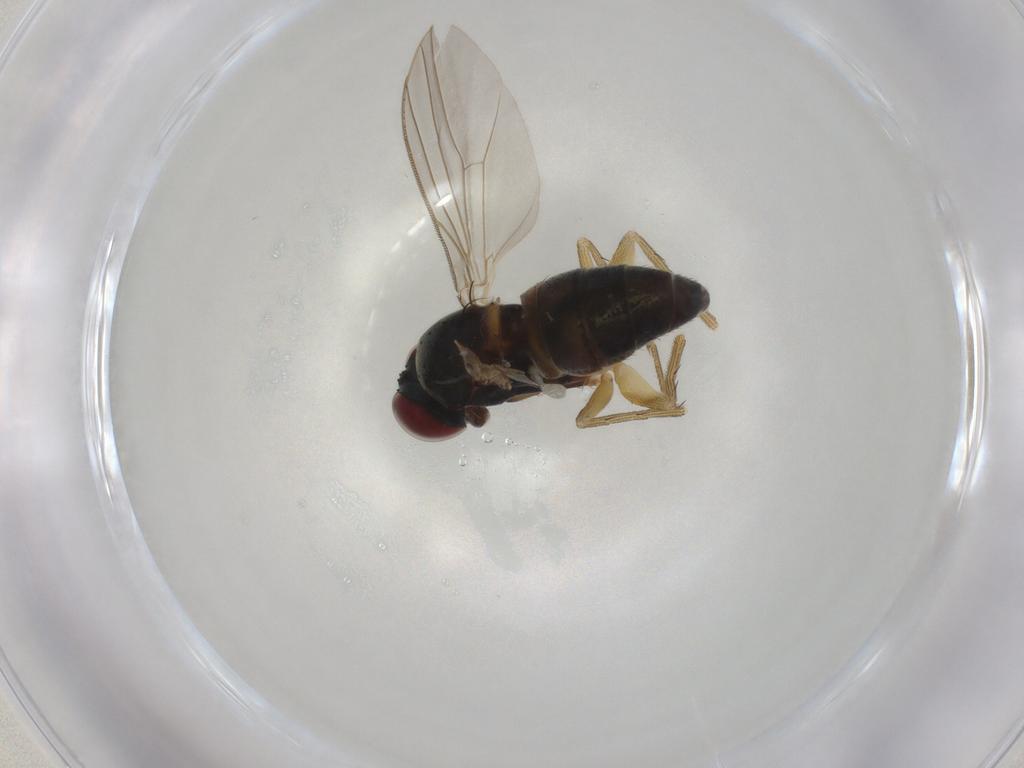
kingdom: Animalia
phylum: Arthropoda
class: Insecta
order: Diptera
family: Dolichopodidae
